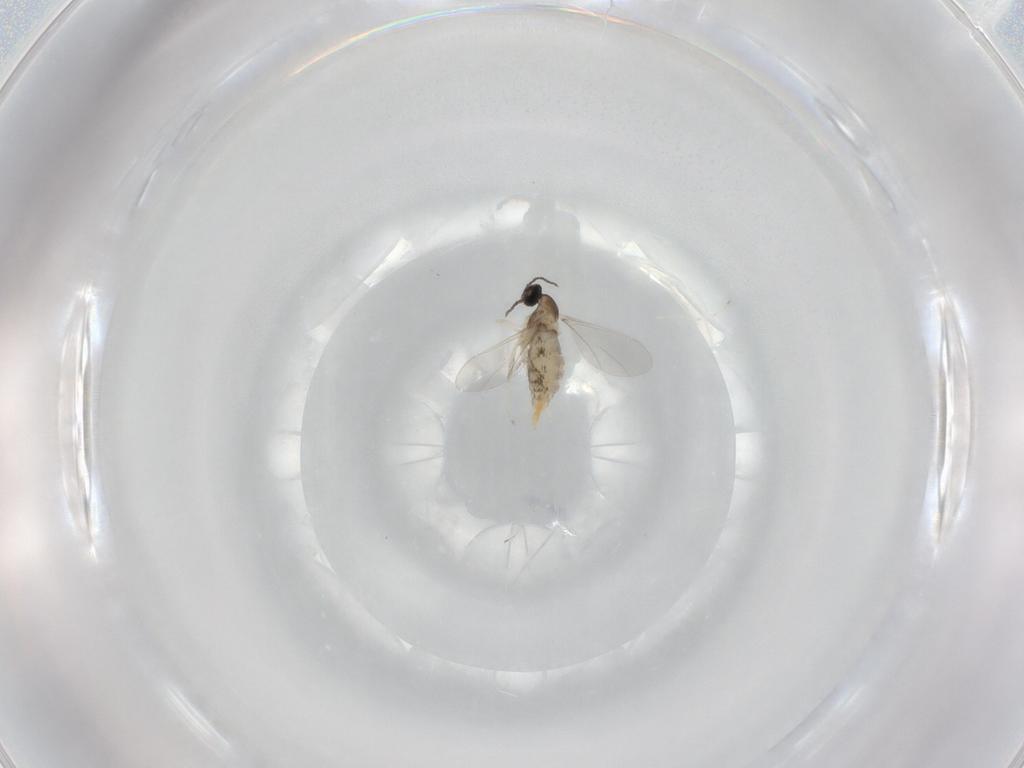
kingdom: Animalia
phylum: Arthropoda
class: Insecta
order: Diptera
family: Cecidomyiidae
